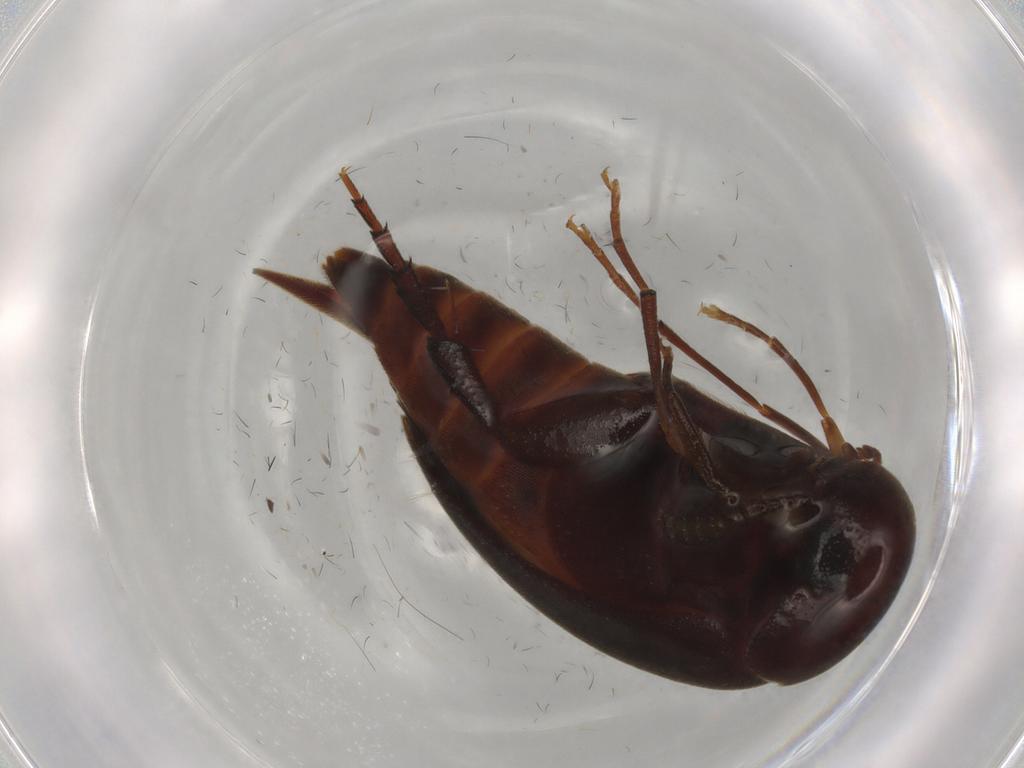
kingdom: Animalia
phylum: Arthropoda
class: Insecta
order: Coleoptera
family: Mordellidae
